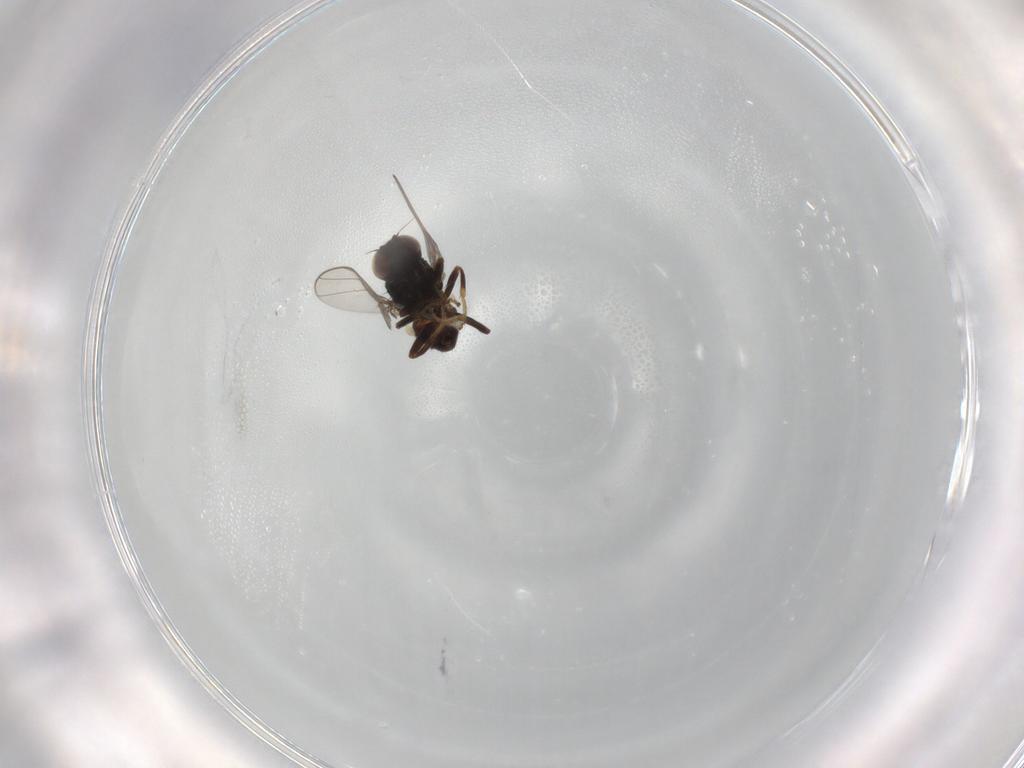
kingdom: Animalia
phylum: Arthropoda
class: Insecta
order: Diptera
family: Chloropidae
